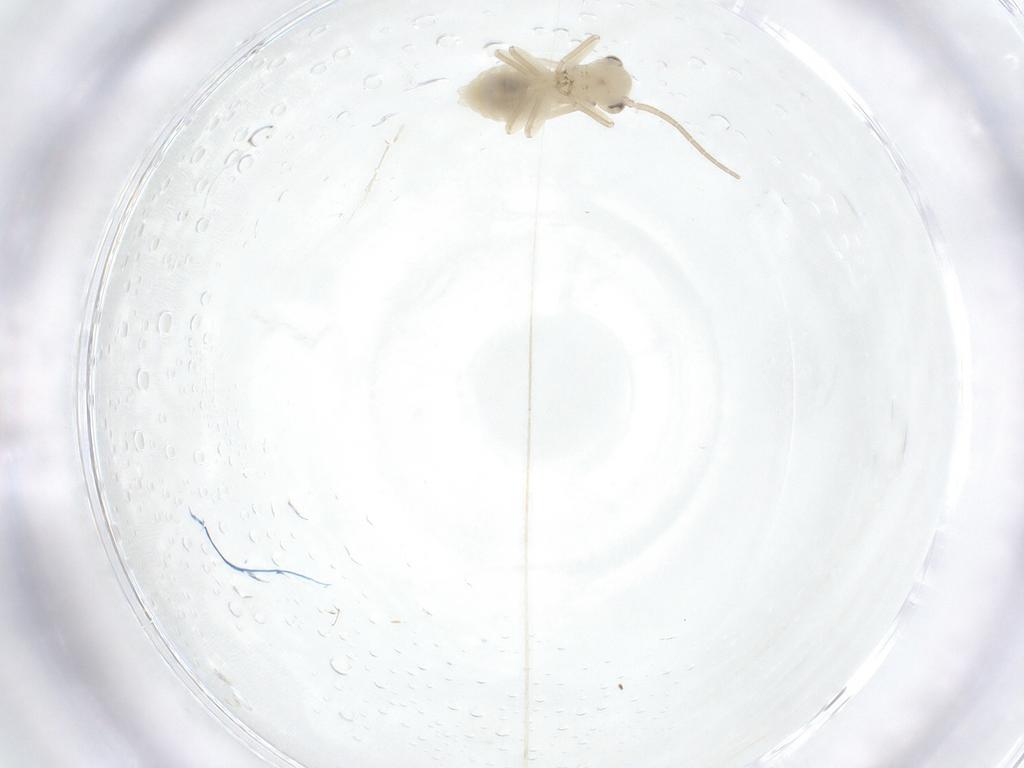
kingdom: Animalia
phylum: Arthropoda
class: Insecta
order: Psocodea
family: Caeciliusidae
